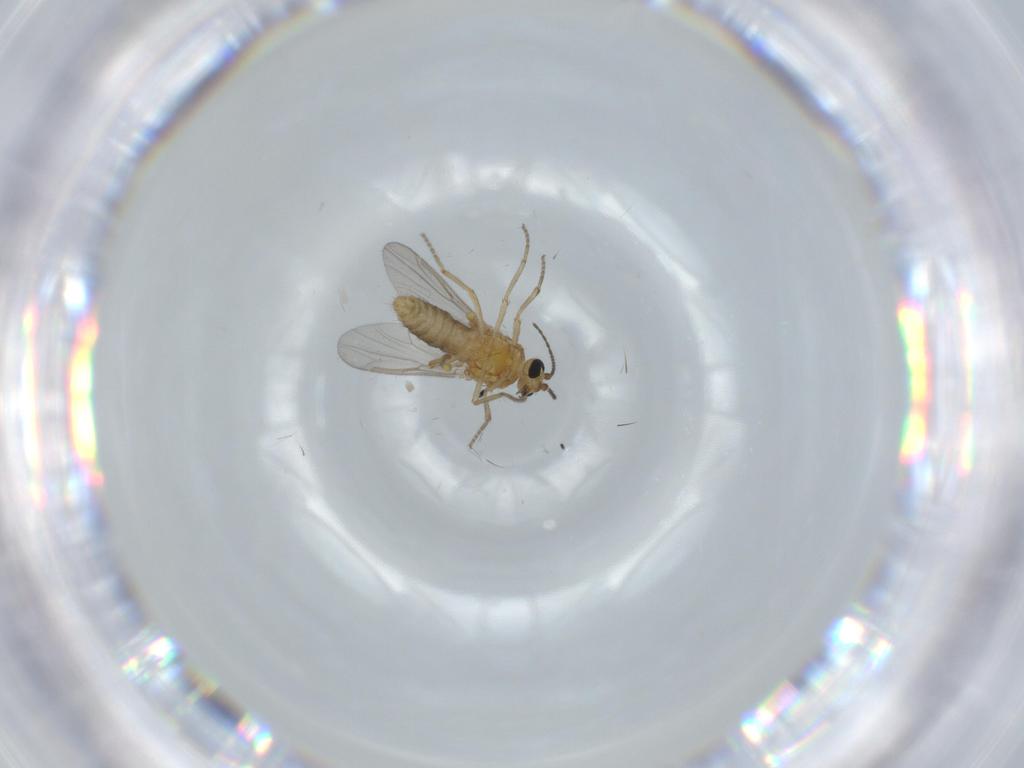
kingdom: Animalia
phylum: Arthropoda
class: Insecta
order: Diptera
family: Ceratopogonidae
